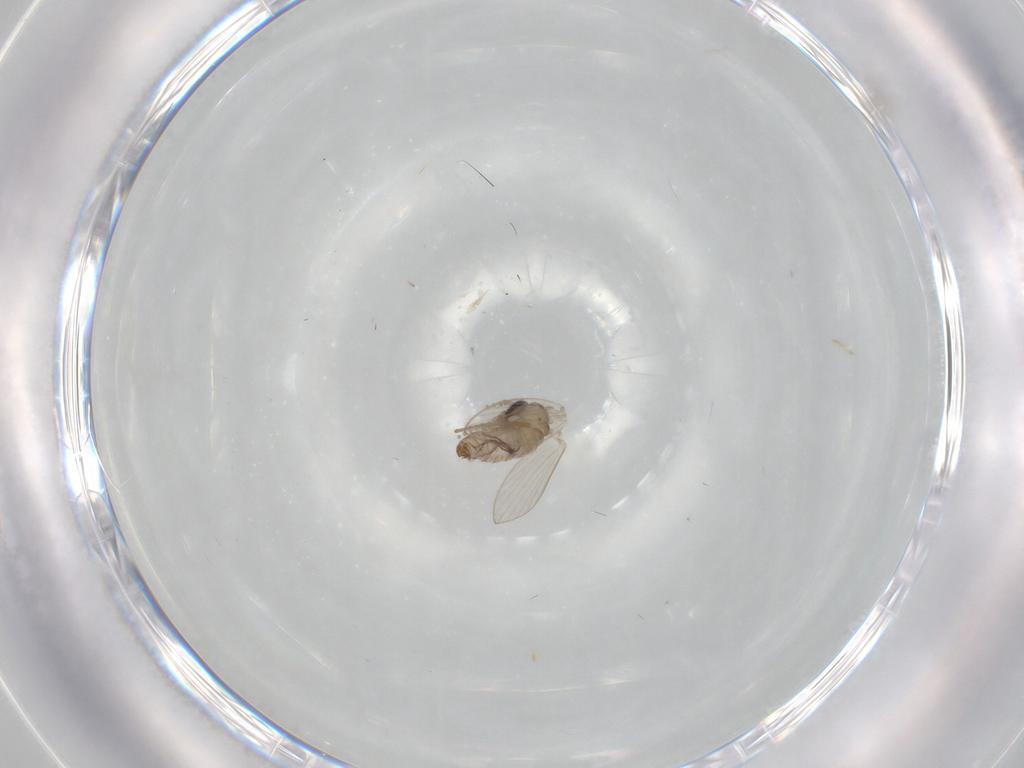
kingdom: Animalia
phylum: Arthropoda
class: Insecta
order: Diptera
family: Psychodidae
